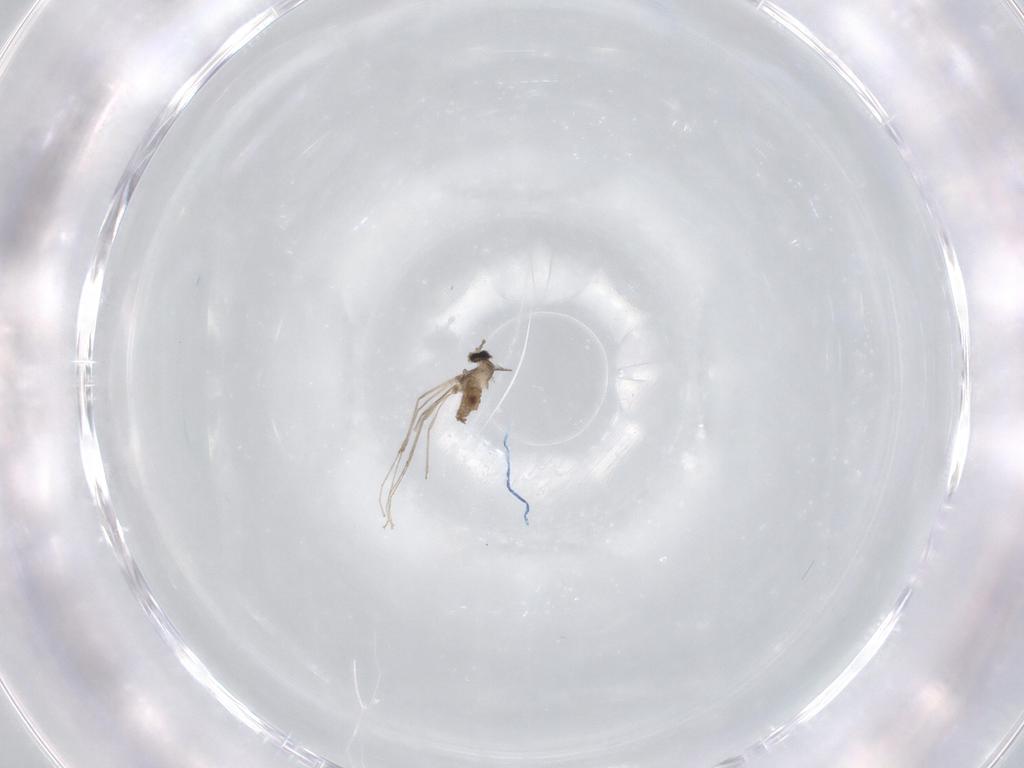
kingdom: Animalia
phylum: Arthropoda
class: Insecta
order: Diptera
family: Cecidomyiidae
